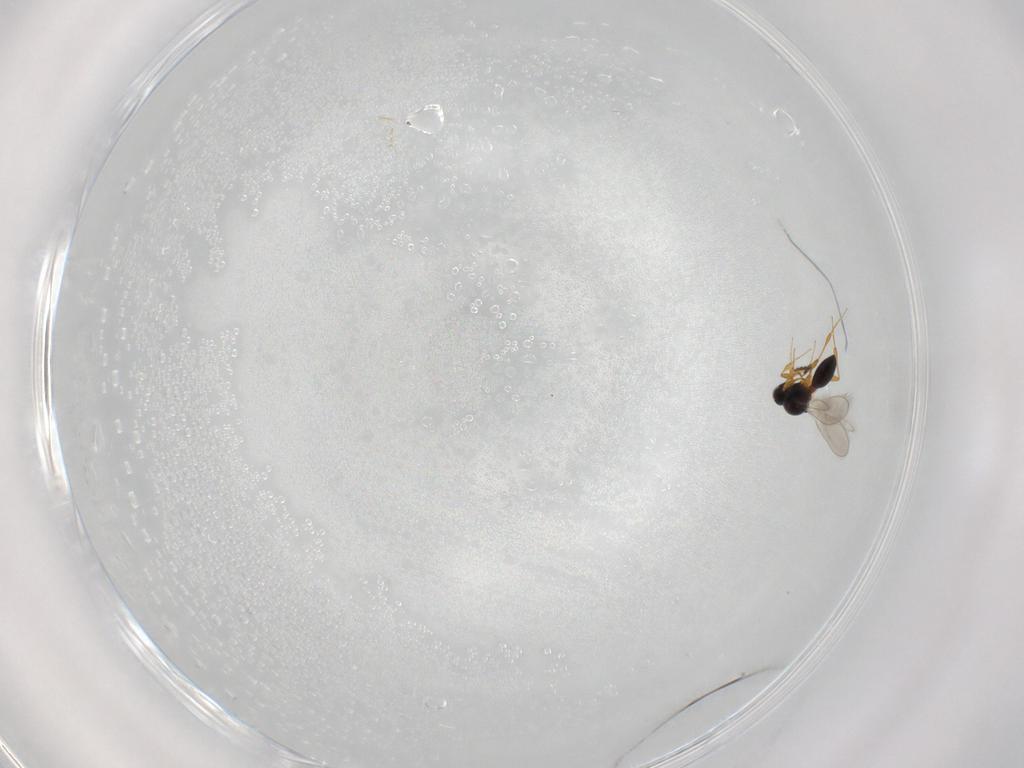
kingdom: Animalia
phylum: Arthropoda
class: Insecta
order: Hymenoptera
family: Platygastridae
